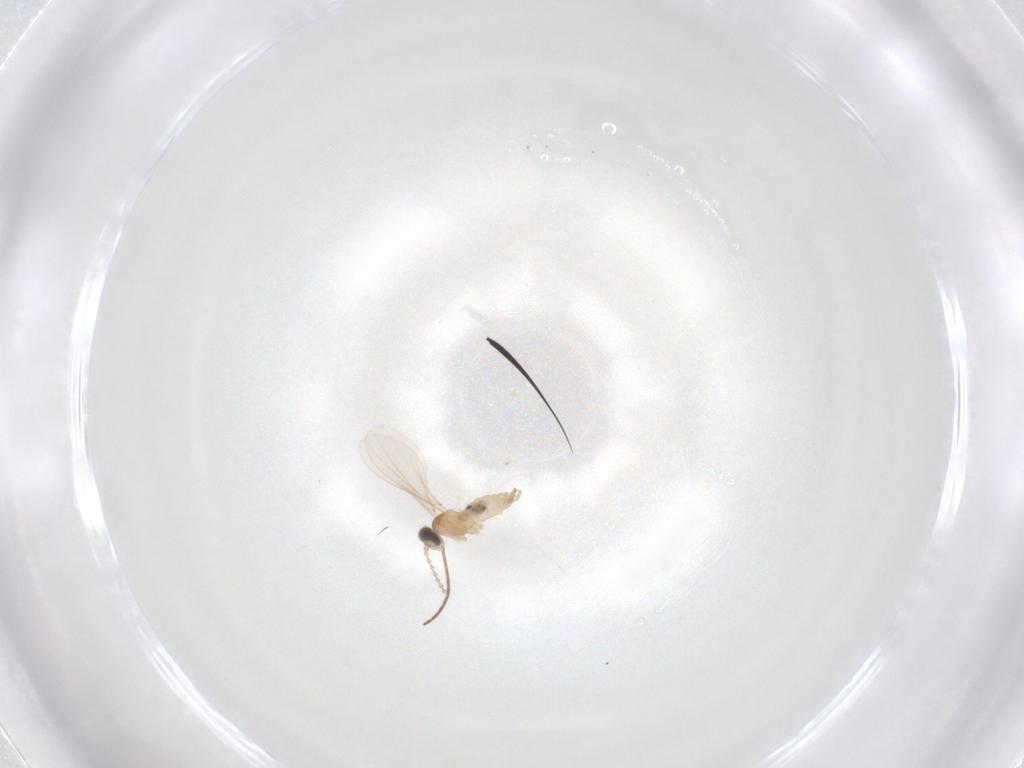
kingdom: Animalia
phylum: Arthropoda
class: Insecta
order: Diptera
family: Cecidomyiidae
